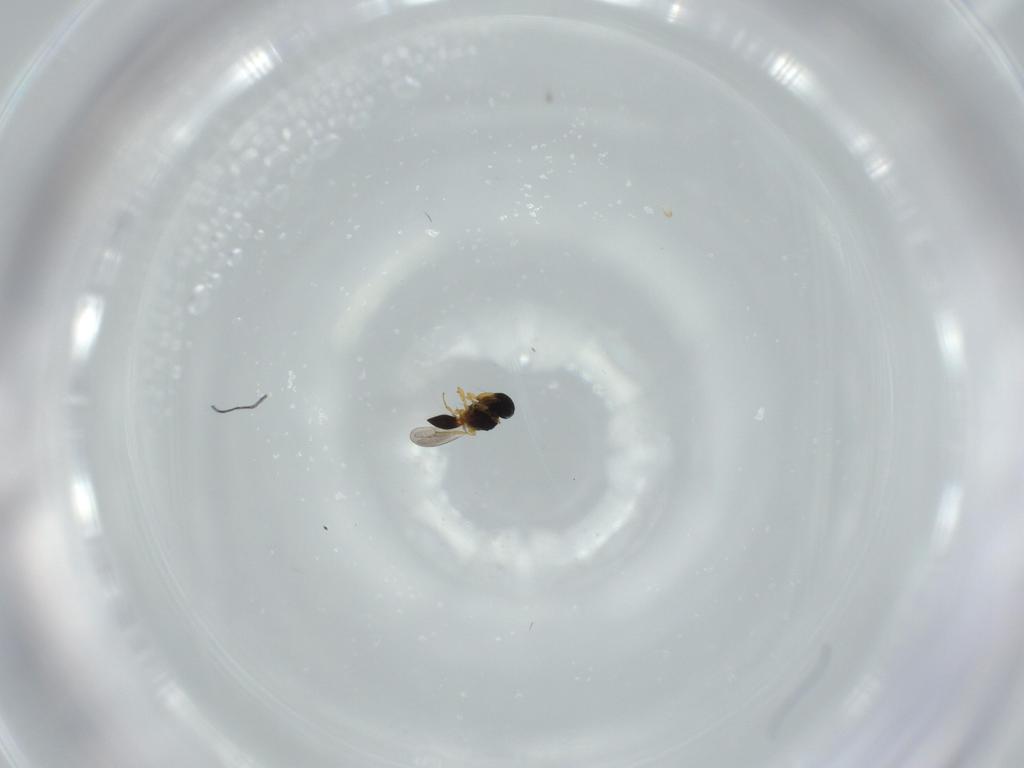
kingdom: Animalia
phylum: Arthropoda
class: Insecta
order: Hymenoptera
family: Platygastridae
